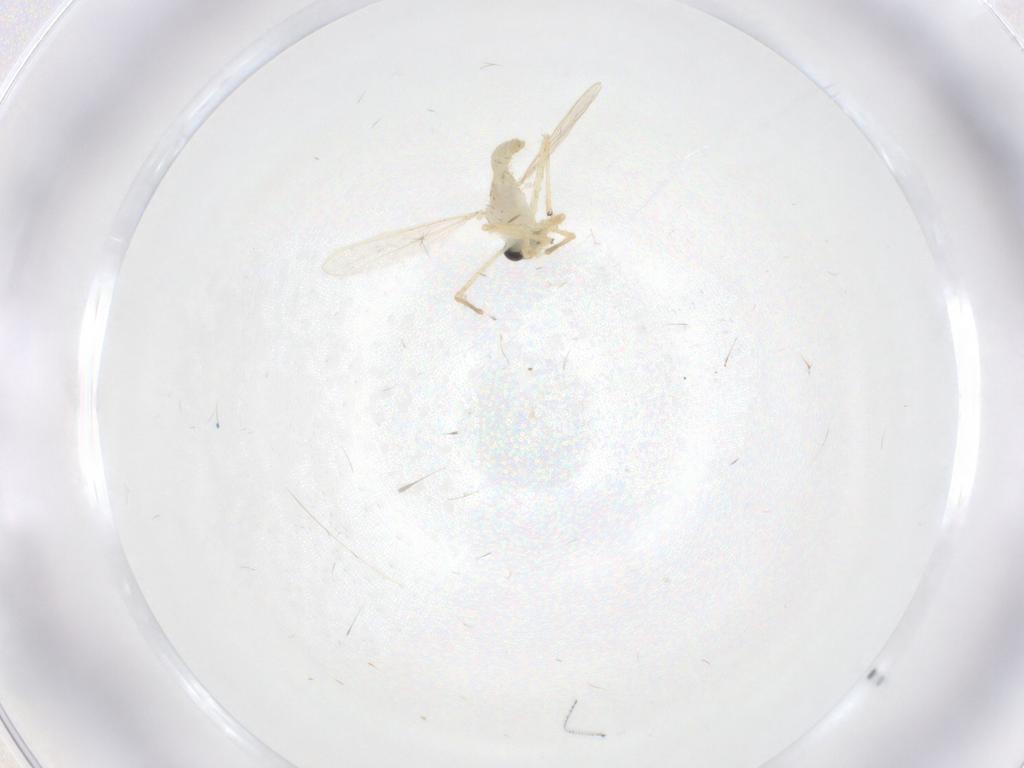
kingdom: Animalia
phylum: Arthropoda
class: Insecta
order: Diptera
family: Chironomidae
